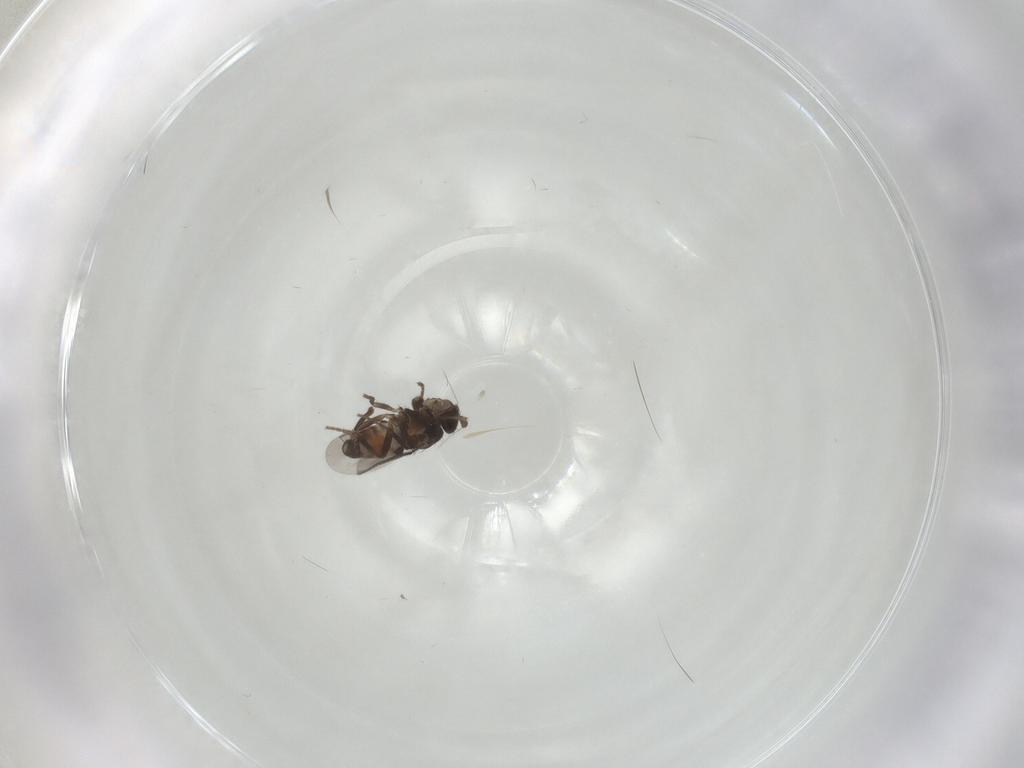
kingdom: Animalia
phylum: Arthropoda
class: Insecta
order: Diptera
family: Sphaeroceridae
